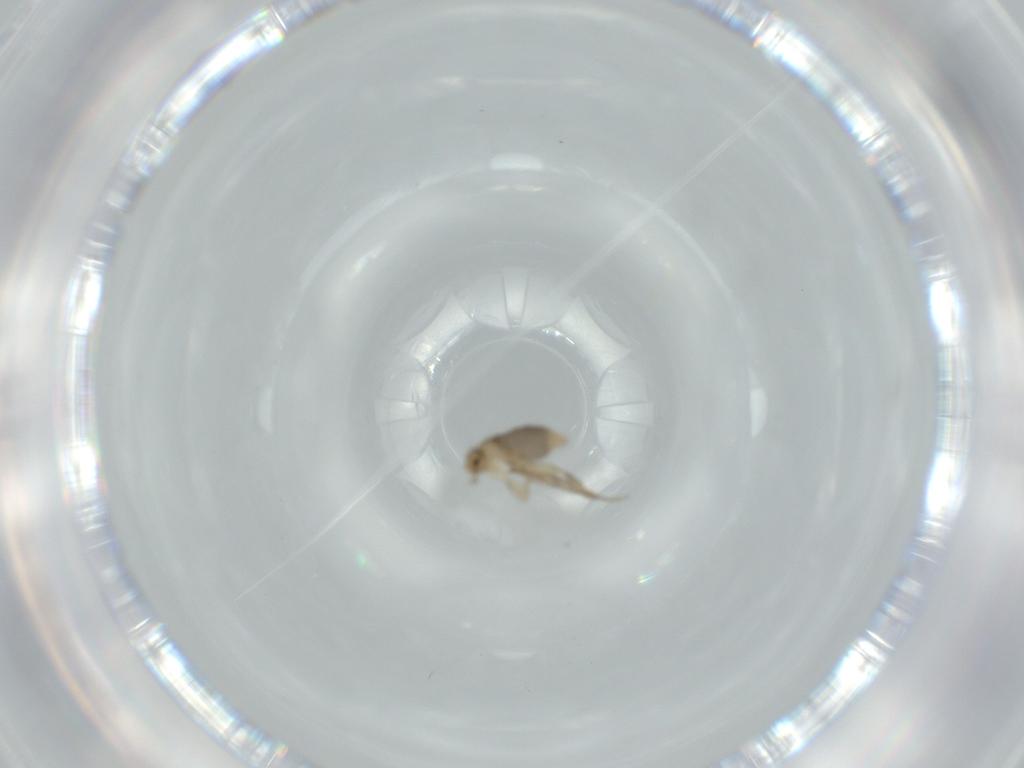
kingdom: Animalia
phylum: Arthropoda
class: Insecta
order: Diptera
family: Phoridae
